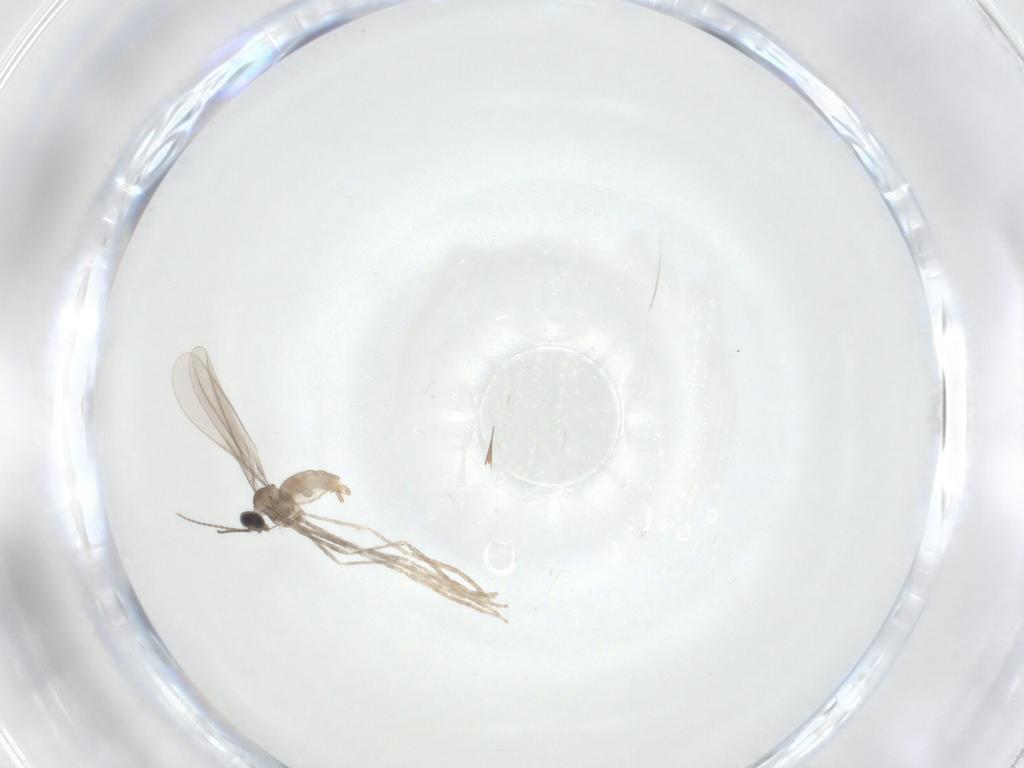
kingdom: Animalia
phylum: Arthropoda
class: Insecta
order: Diptera
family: Cecidomyiidae
